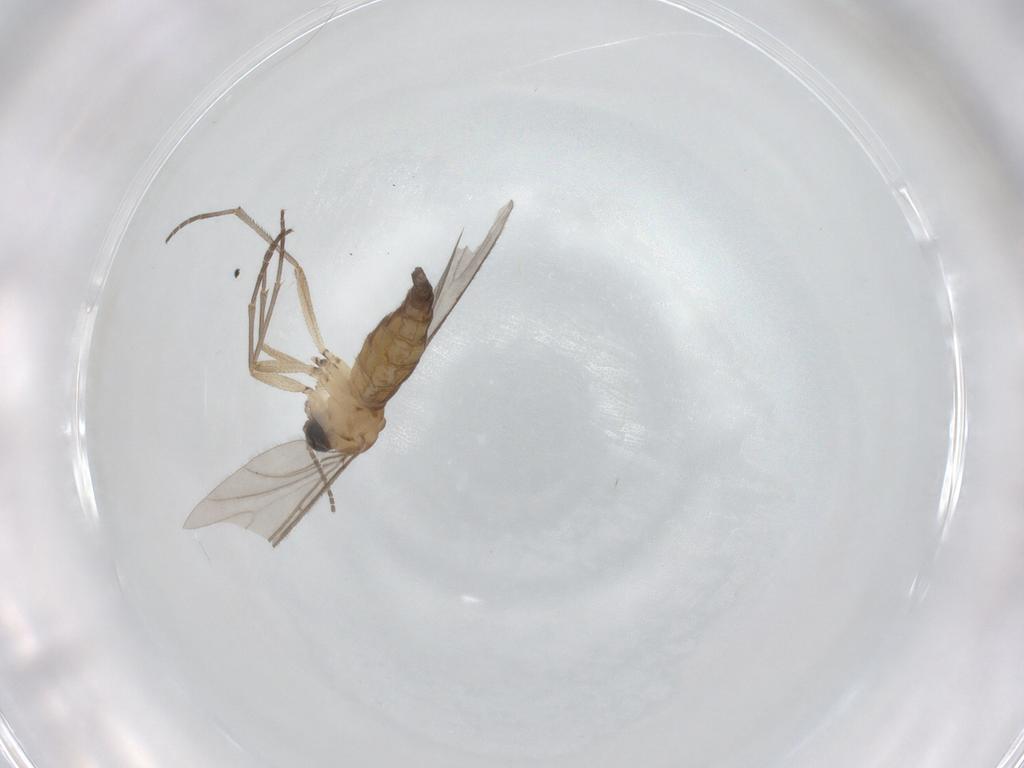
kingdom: Animalia
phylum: Arthropoda
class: Insecta
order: Diptera
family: Sciaridae
